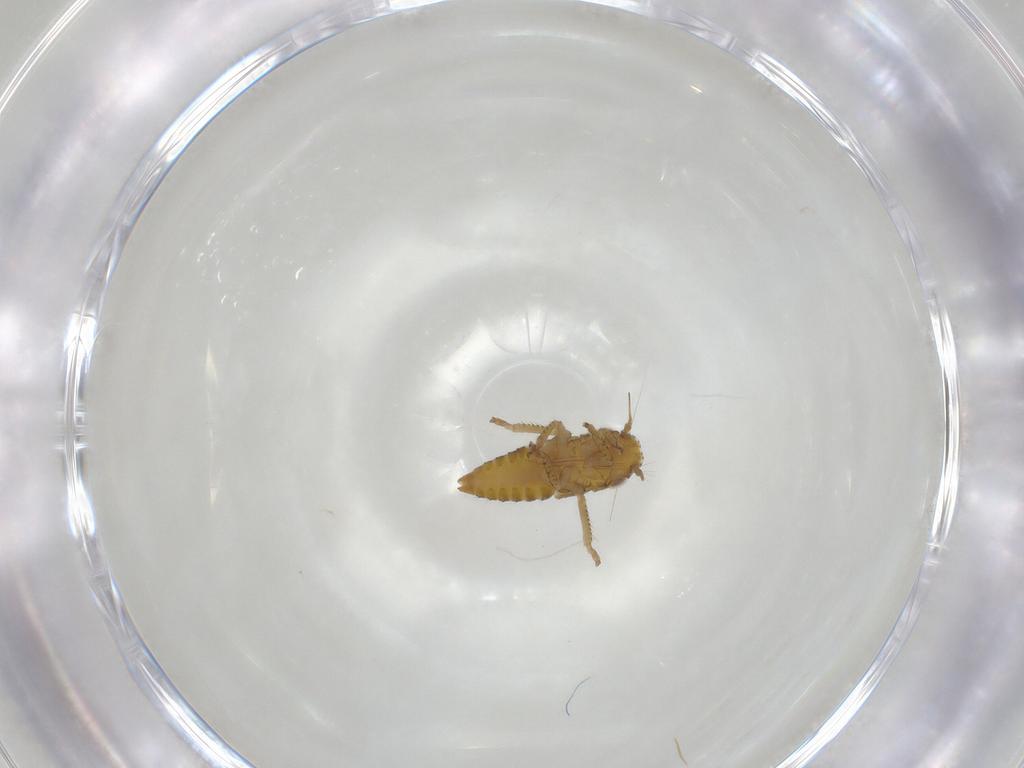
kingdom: Animalia
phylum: Arthropoda
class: Insecta
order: Hemiptera
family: Cicadellidae
